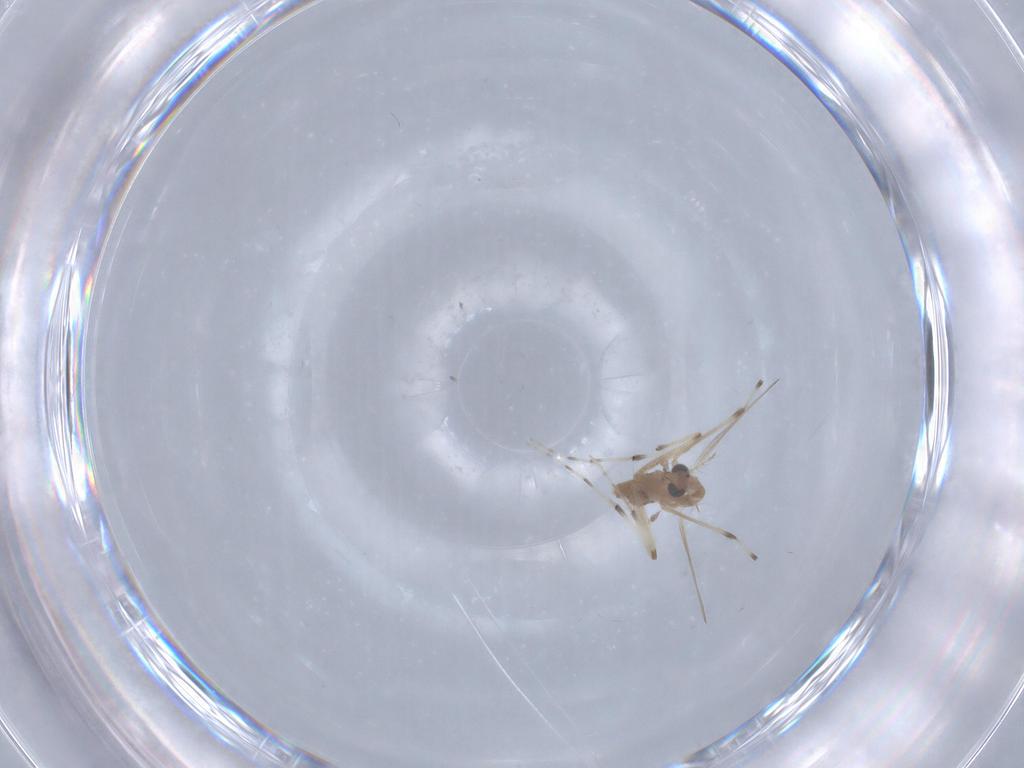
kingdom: Animalia
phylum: Arthropoda
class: Insecta
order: Diptera
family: Chironomidae
